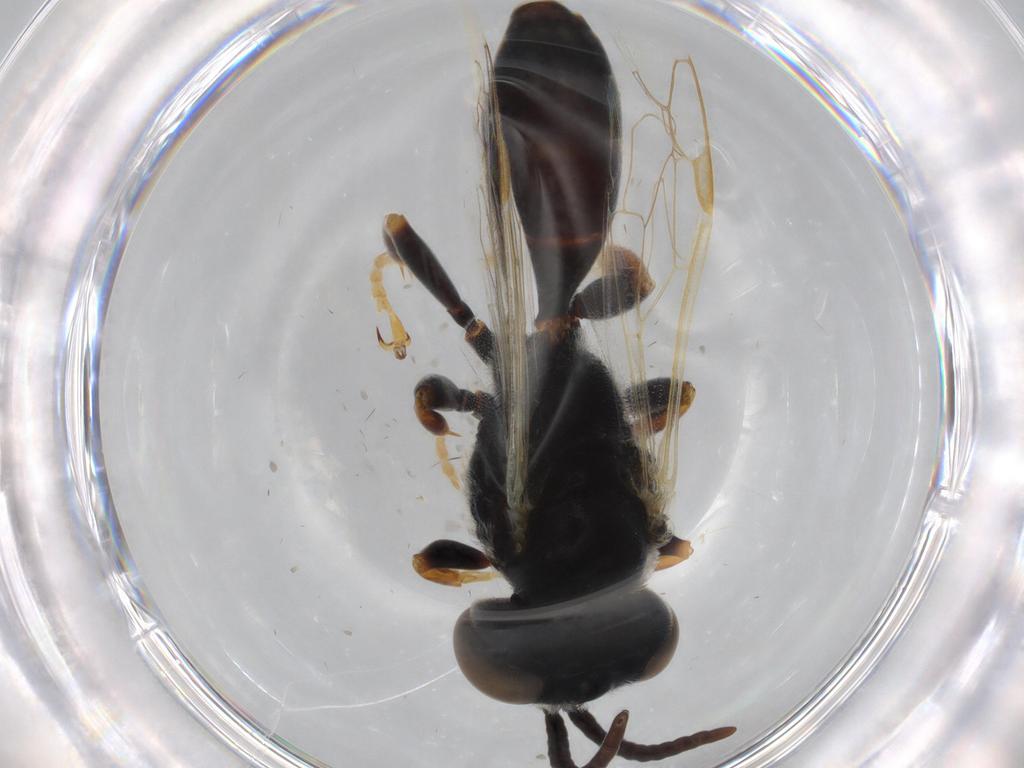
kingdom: Animalia
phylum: Arthropoda
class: Insecta
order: Hymenoptera
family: Crabronidae
